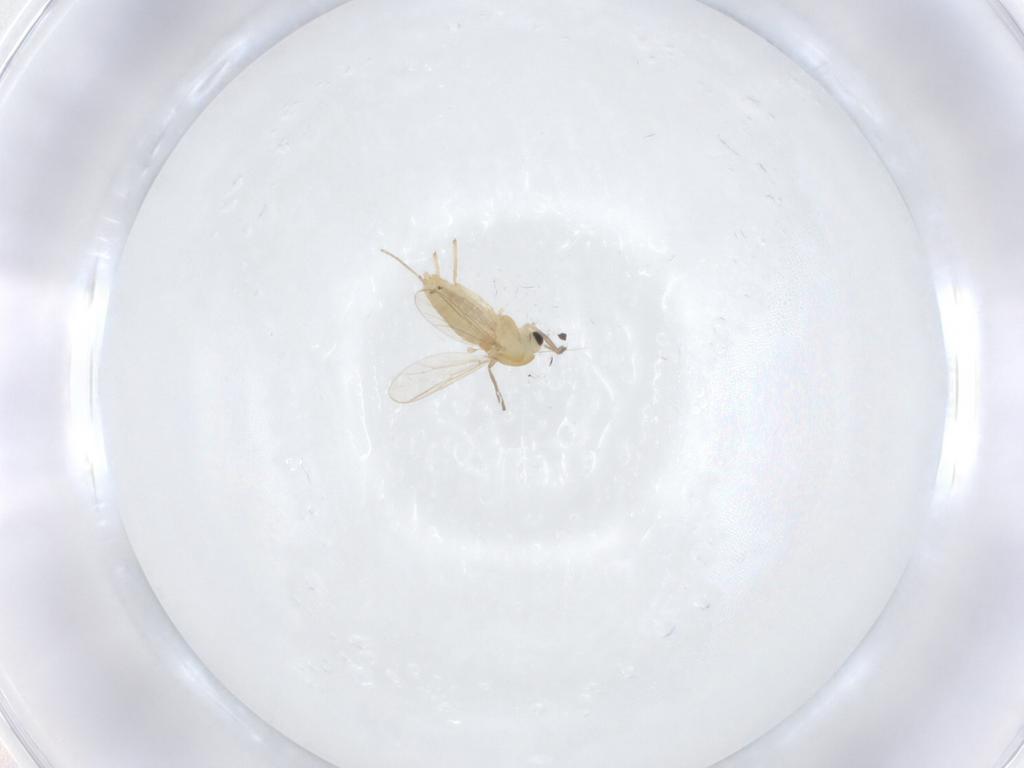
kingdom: Animalia
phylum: Arthropoda
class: Insecta
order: Diptera
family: Chironomidae
